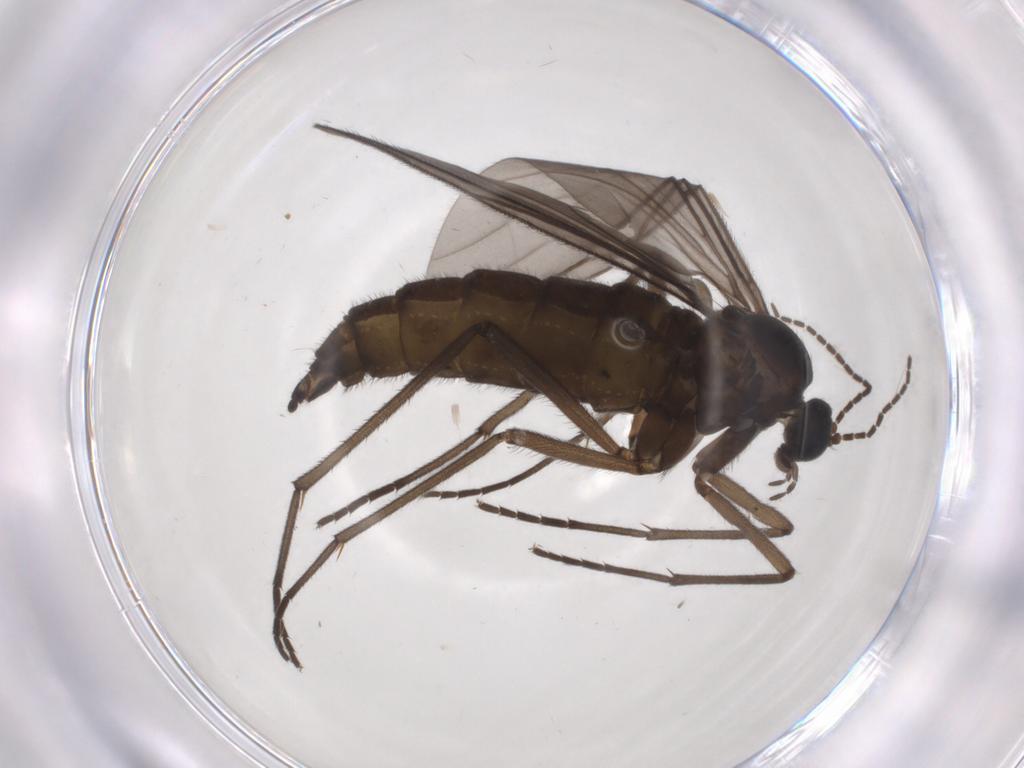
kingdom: Animalia
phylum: Arthropoda
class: Insecta
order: Diptera
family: Sciaridae
